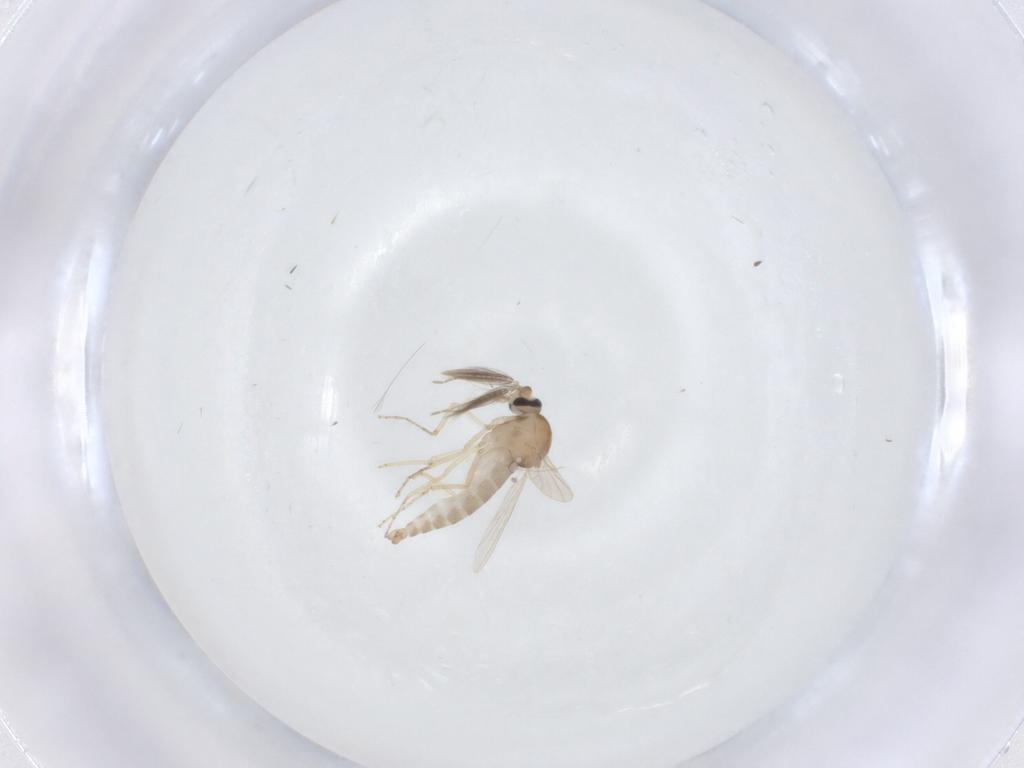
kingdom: Animalia
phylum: Arthropoda
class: Insecta
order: Diptera
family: Ceratopogonidae
